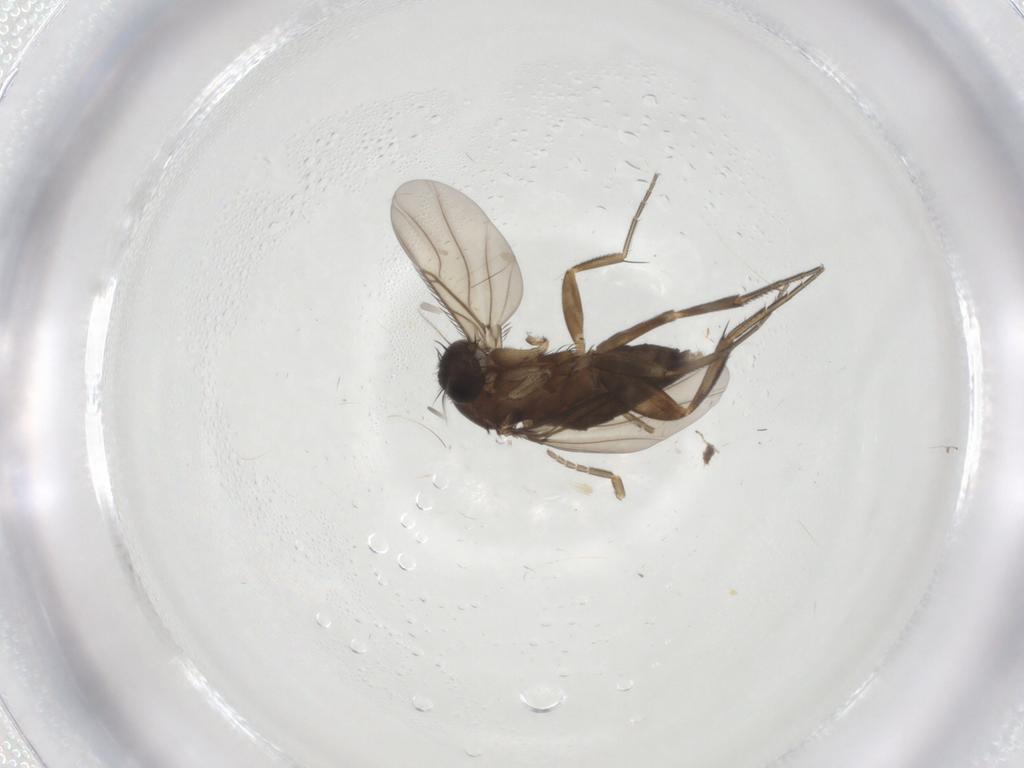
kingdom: Animalia
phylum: Arthropoda
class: Insecta
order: Diptera
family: Phoridae
